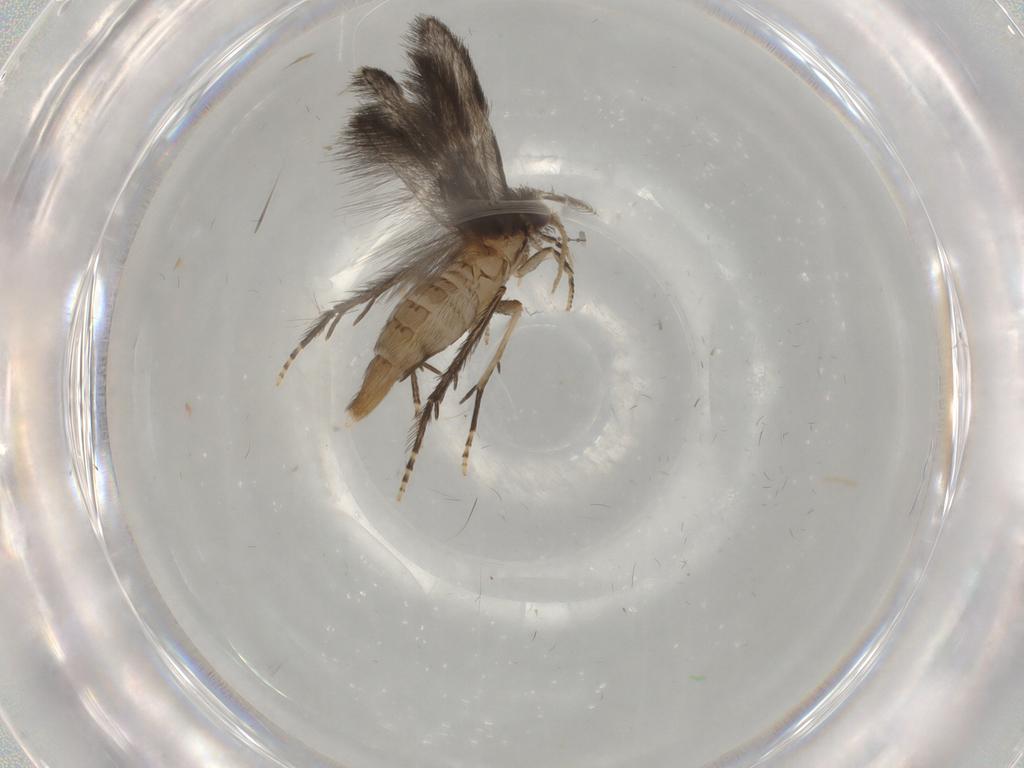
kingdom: Animalia
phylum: Arthropoda
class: Insecta
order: Trichoptera
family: Hydroptilidae
